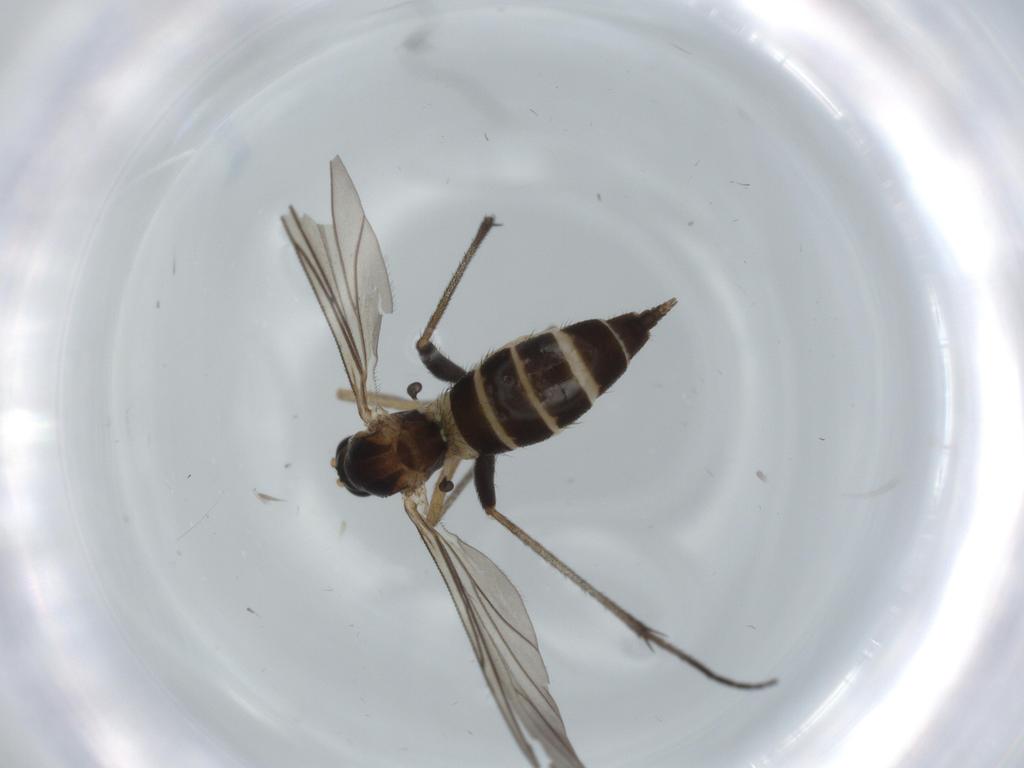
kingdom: Animalia
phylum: Arthropoda
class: Insecta
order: Diptera
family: Sciaridae
